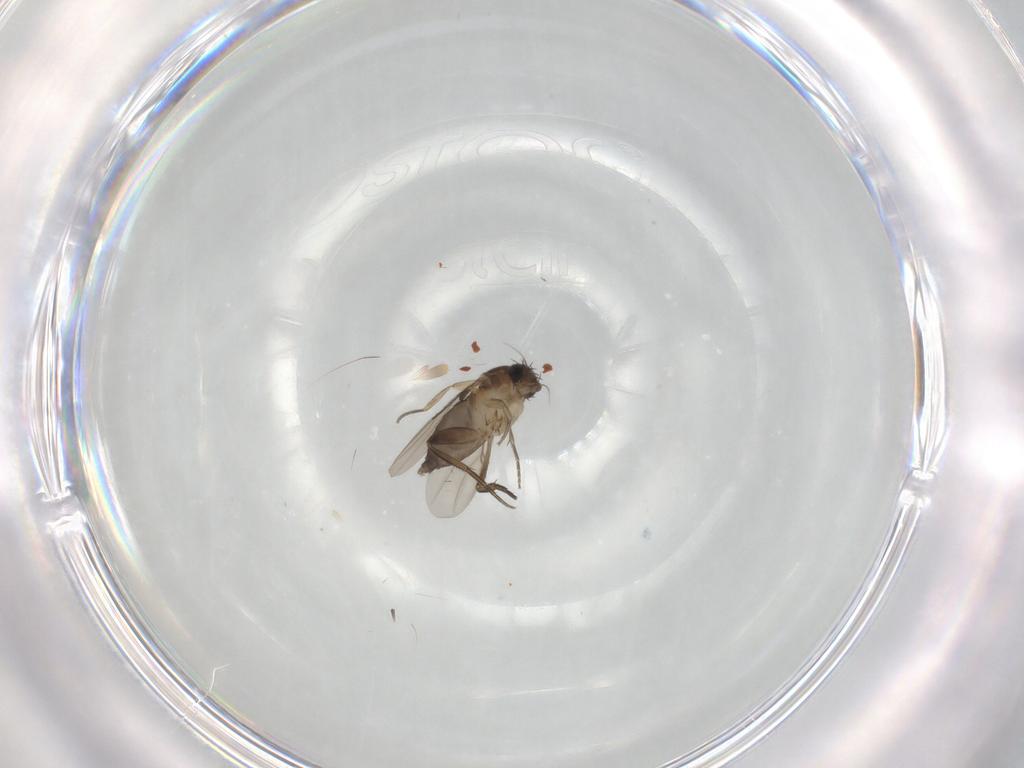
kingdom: Animalia
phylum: Arthropoda
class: Insecta
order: Diptera
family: Phoridae
